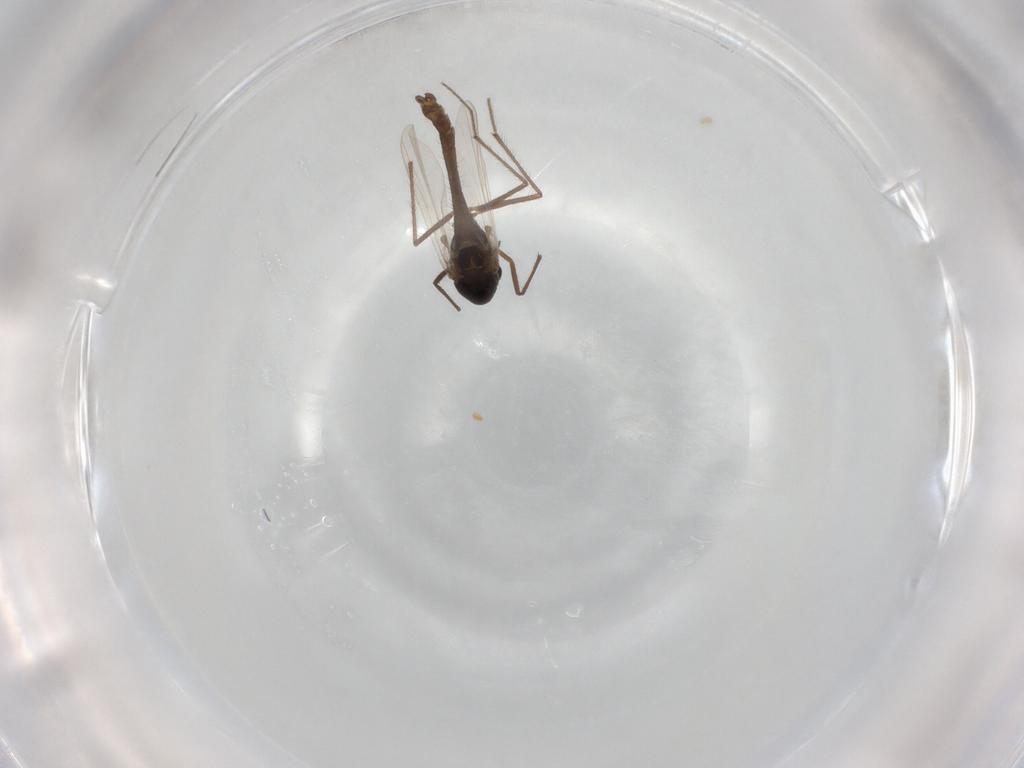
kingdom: Animalia
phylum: Arthropoda
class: Insecta
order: Diptera
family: Chironomidae
